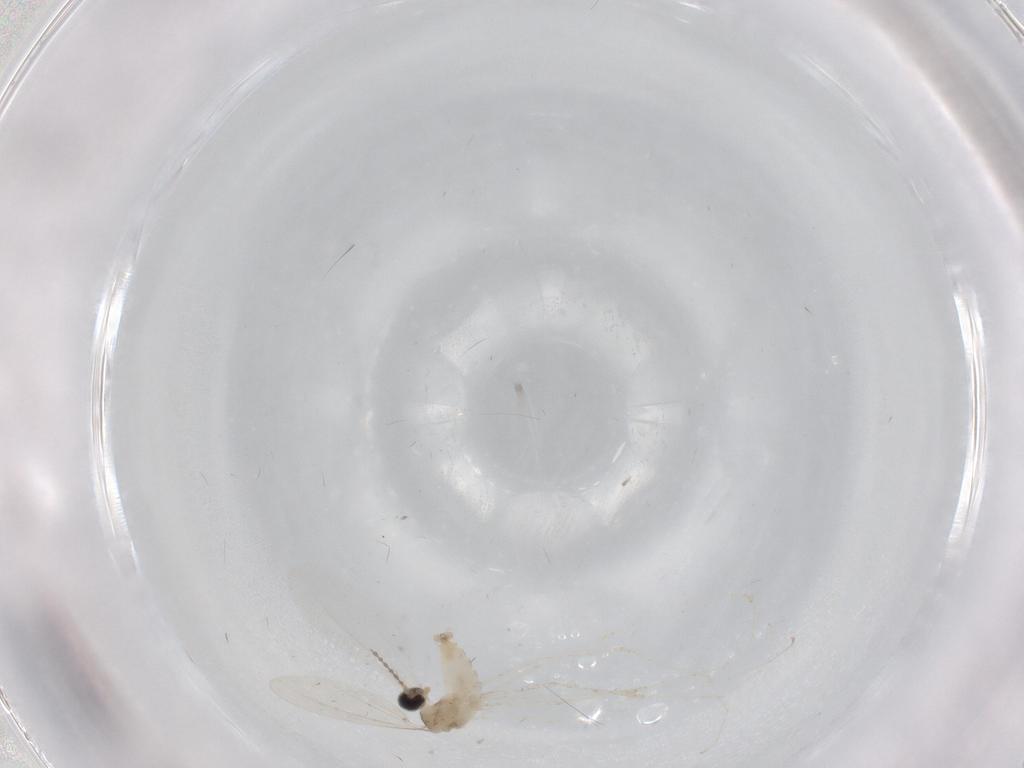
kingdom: Animalia
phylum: Arthropoda
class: Insecta
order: Diptera
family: Cecidomyiidae
